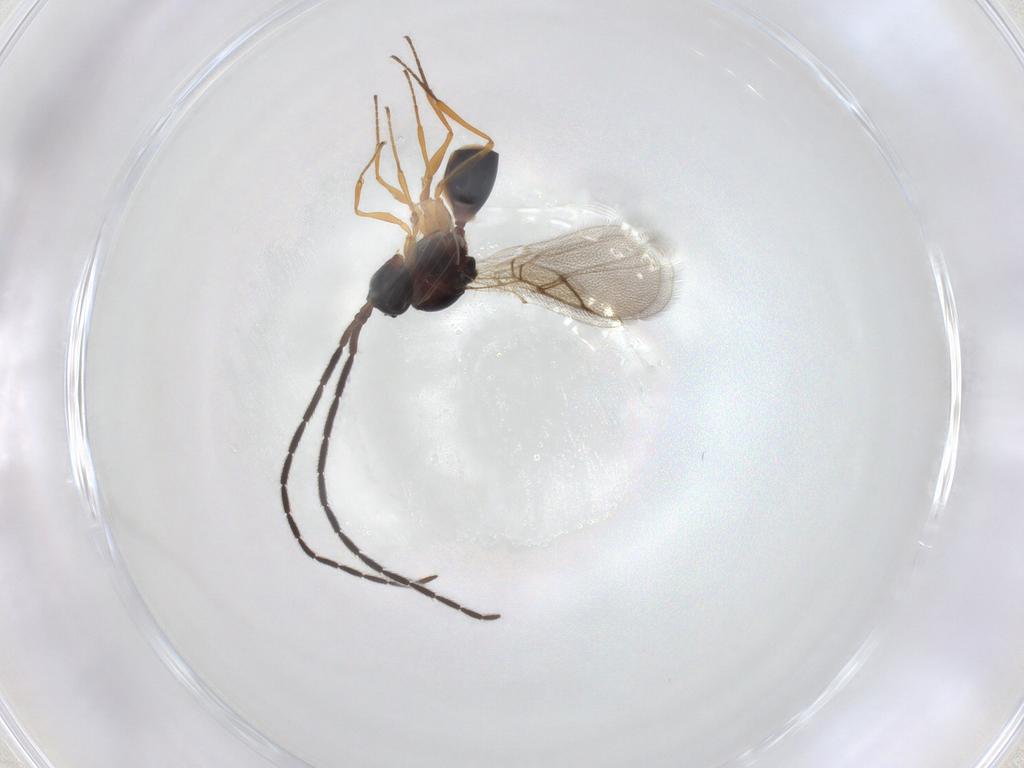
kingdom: Animalia
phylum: Arthropoda
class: Insecta
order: Hymenoptera
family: Figitidae
